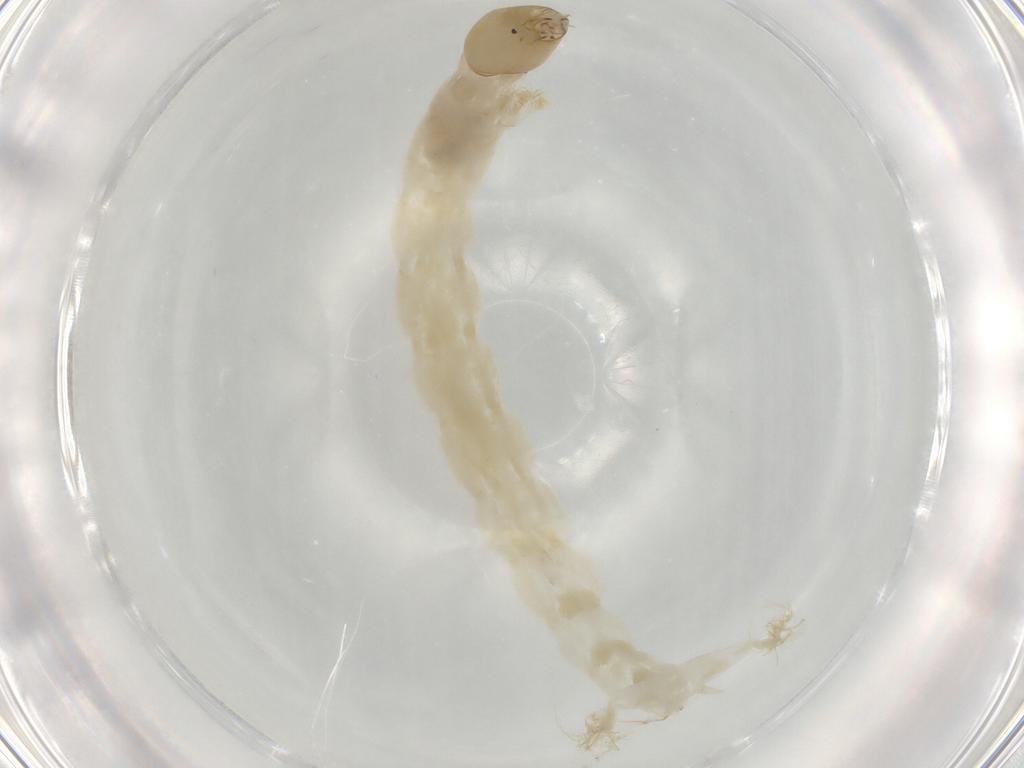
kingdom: Animalia
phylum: Arthropoda
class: Insecta
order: Diptera
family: Chironomidae
